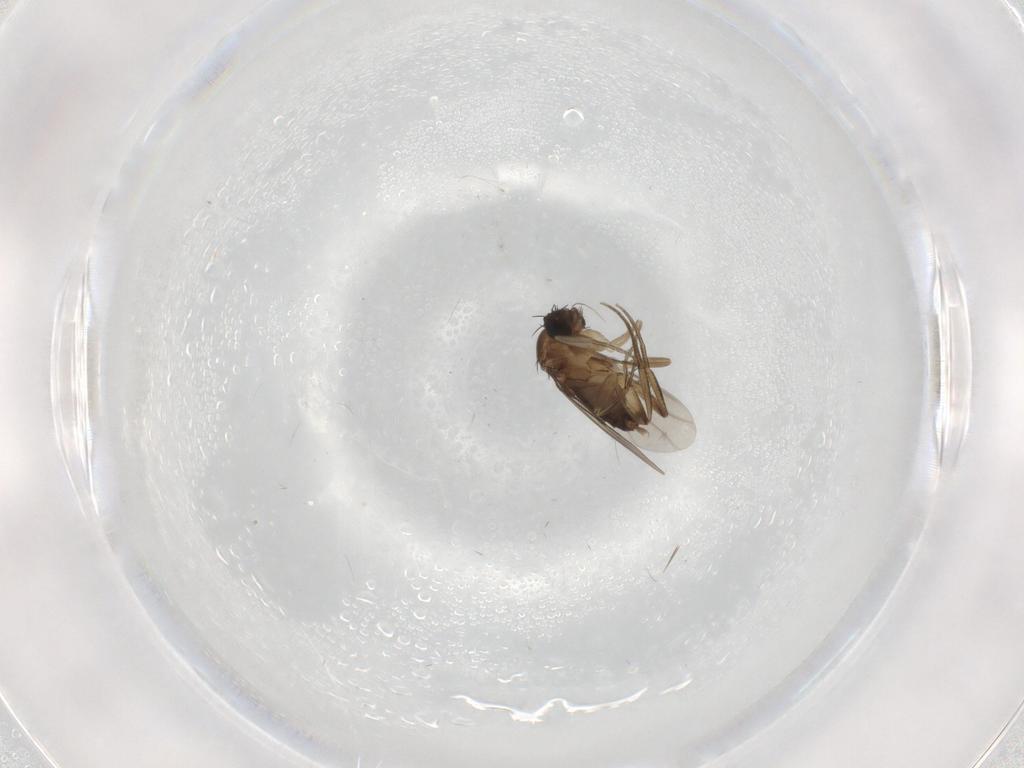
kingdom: Animalia
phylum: Arthropoda
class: Insecta
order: Diptera
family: Phoridae
